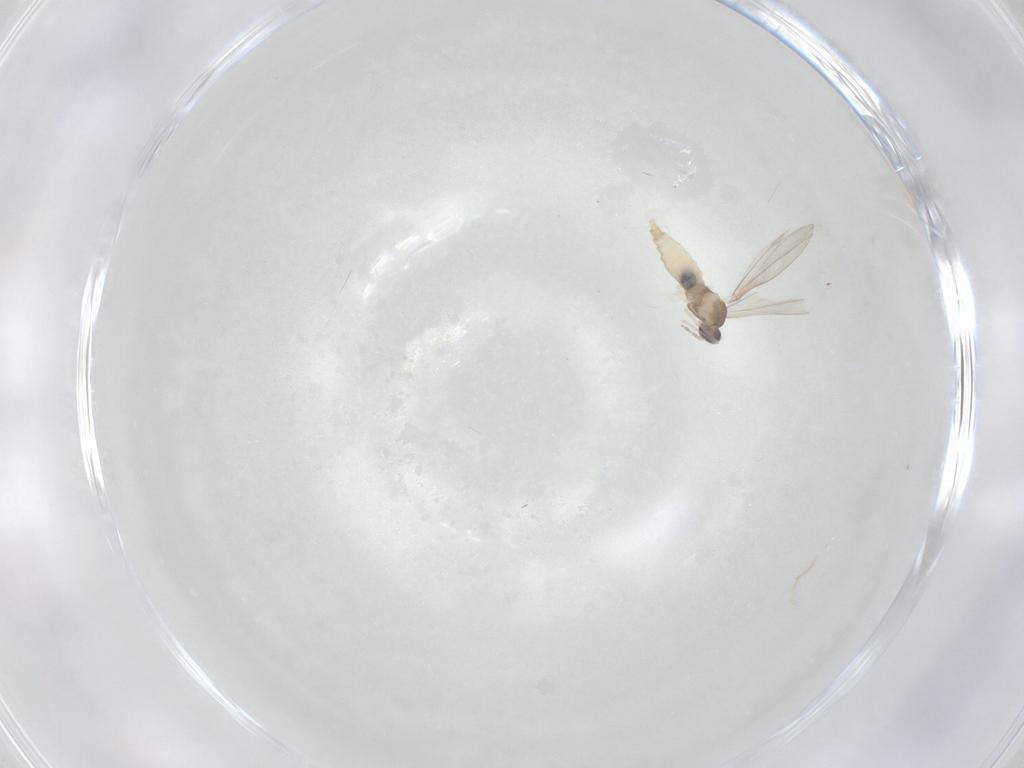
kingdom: Animalia
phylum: Arthropoda
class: Insecta
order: Diptera
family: Cecidomyiidae
